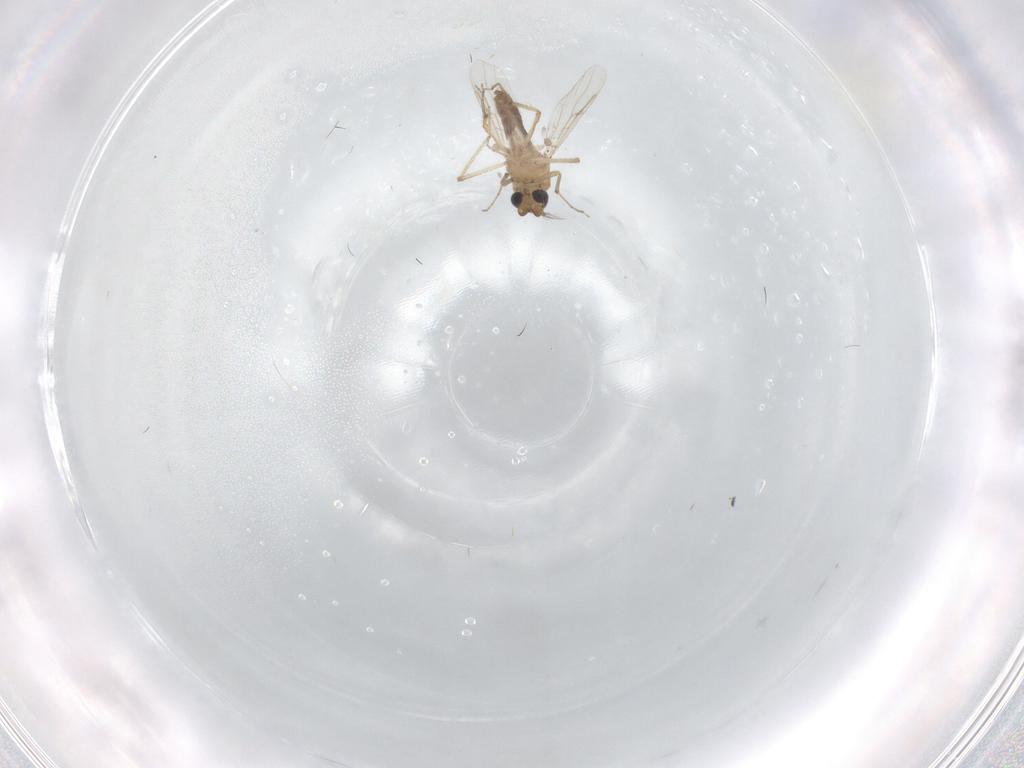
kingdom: Animalia
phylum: Arthropoda
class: Insecta
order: Diptera
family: Ceratopogonidae
